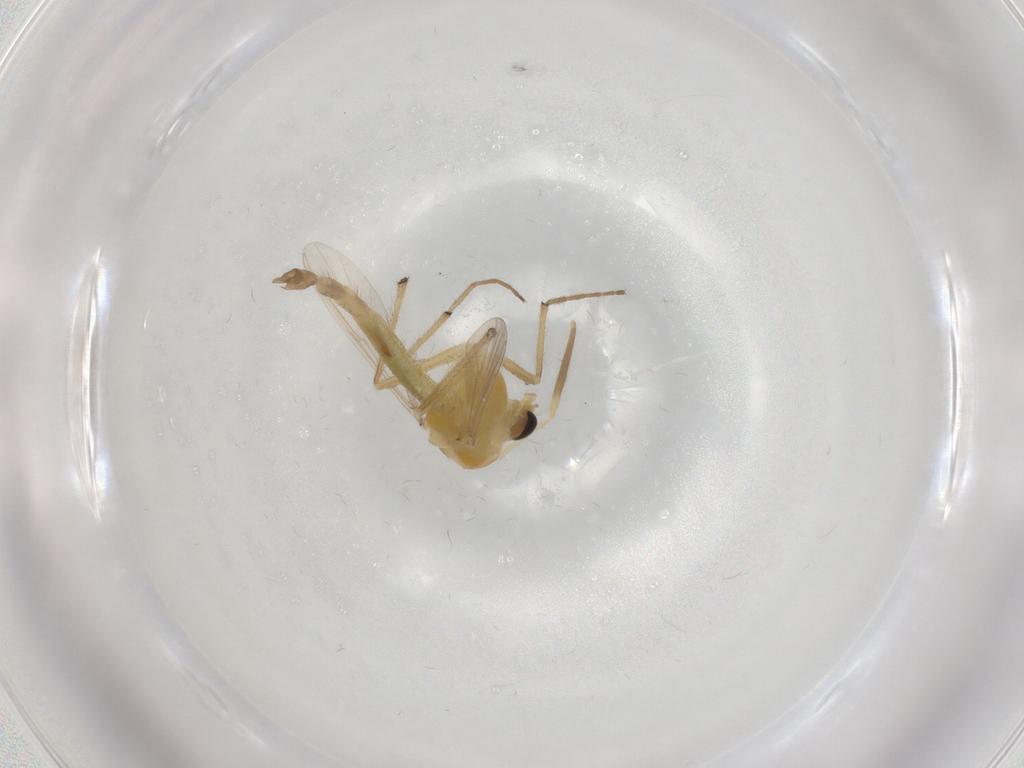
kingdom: Animalia
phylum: Arthropoda
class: Insecta
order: Diptera
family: Chironomidae
